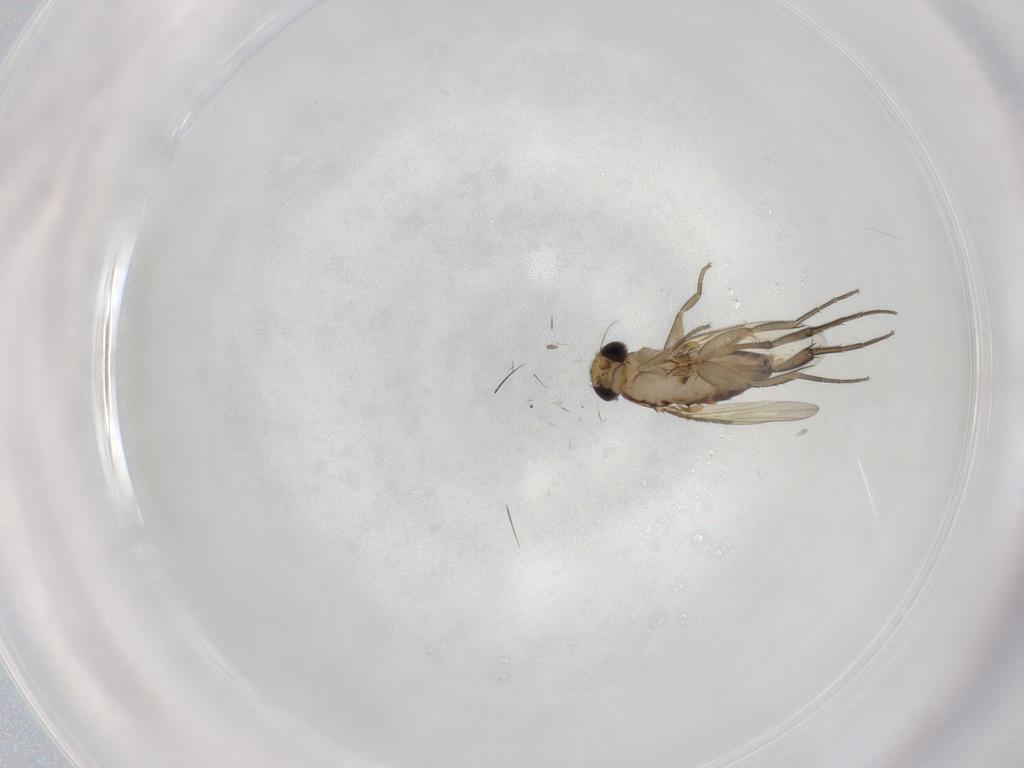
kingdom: Animalia
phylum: Arthropoda
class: Insecta
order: Diptera
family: Phoridae
